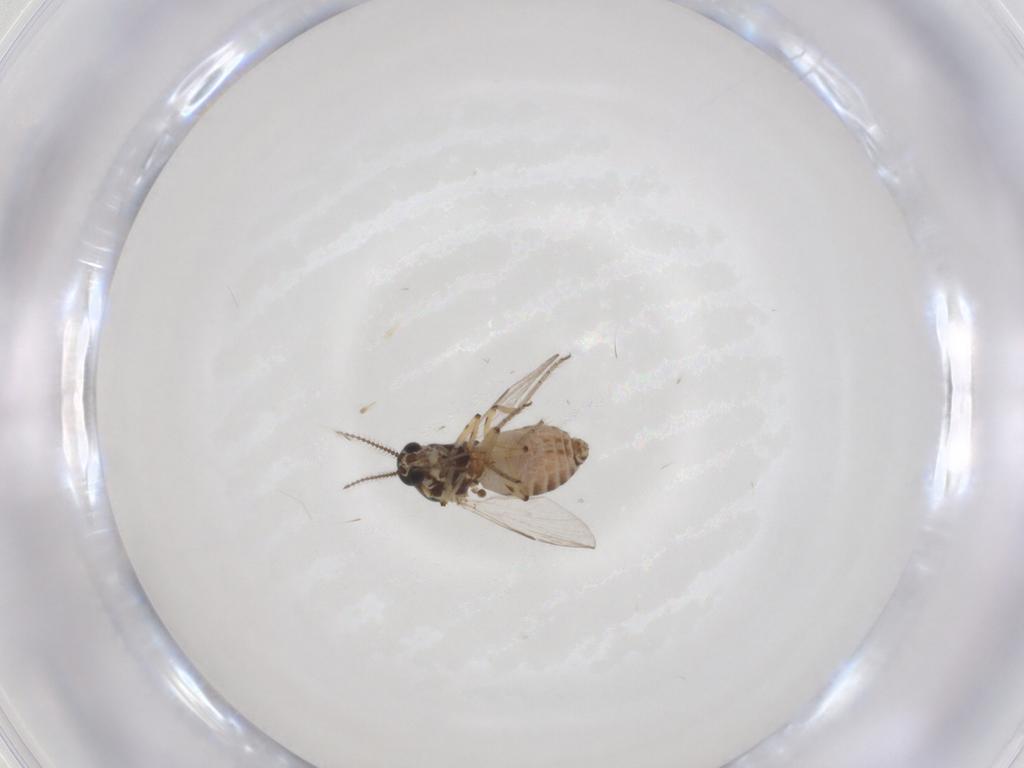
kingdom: Animalia
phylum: Arthropoda
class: Insecta
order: Diptera
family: Ceratopogonidae
